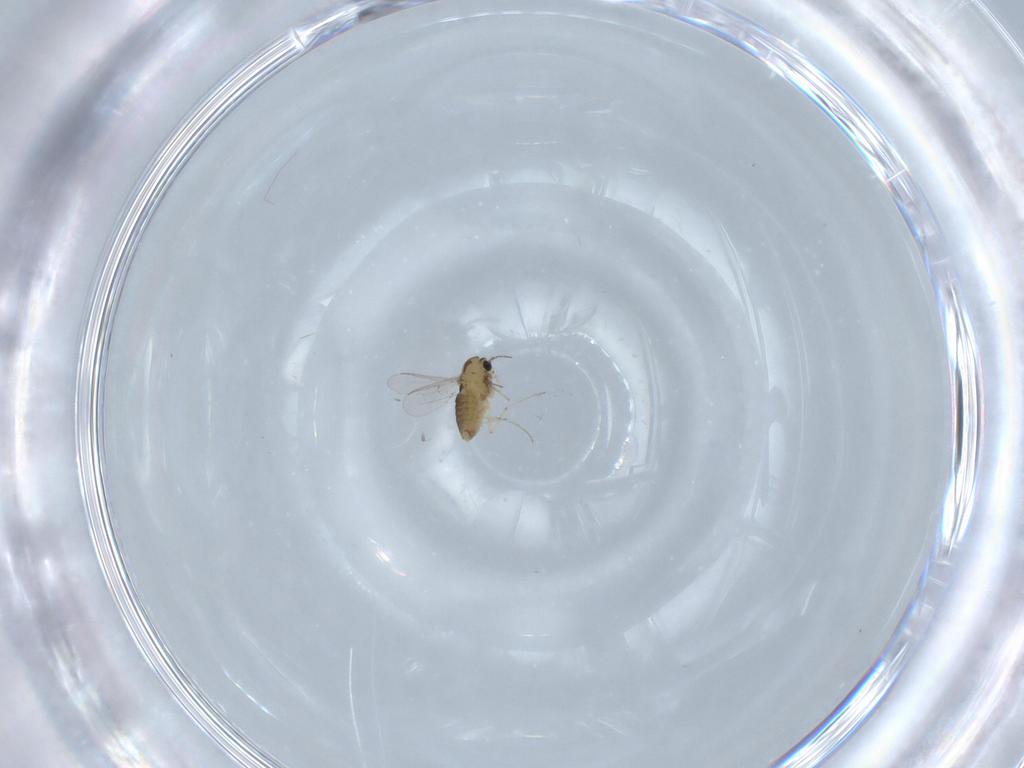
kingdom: Animalia
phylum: Arthropoda
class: Insecta
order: Diptera
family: Chironomidae
